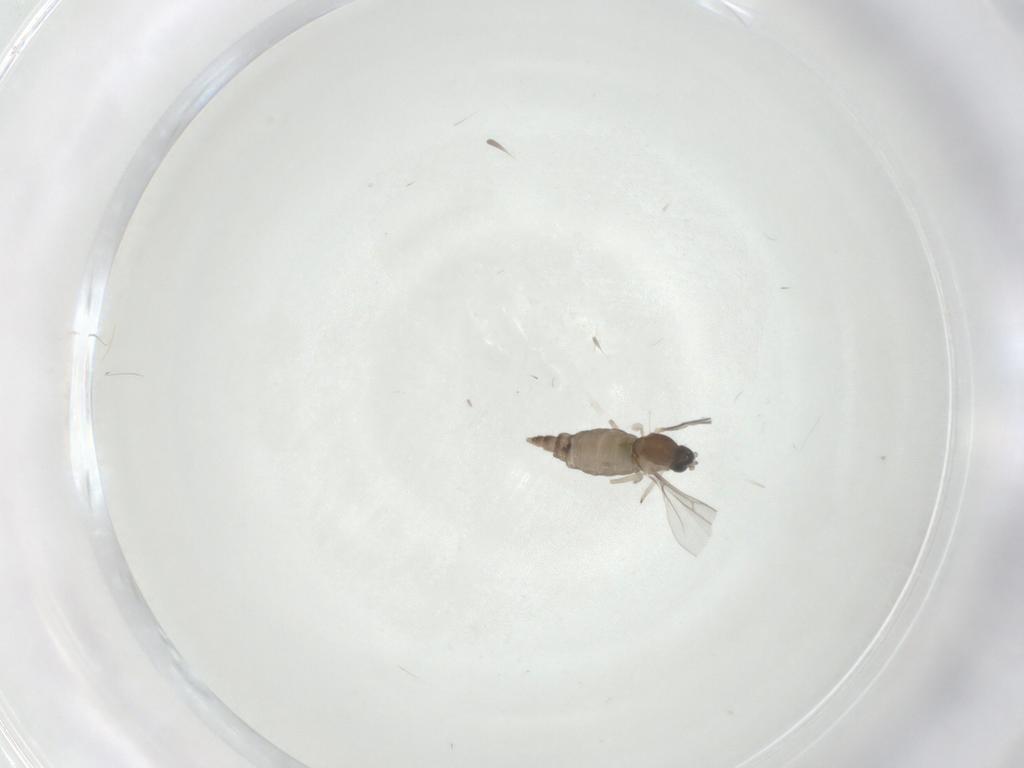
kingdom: Animalia
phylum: Arthropoda
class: Insecta
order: Diptera
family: Cecidomyiidae
